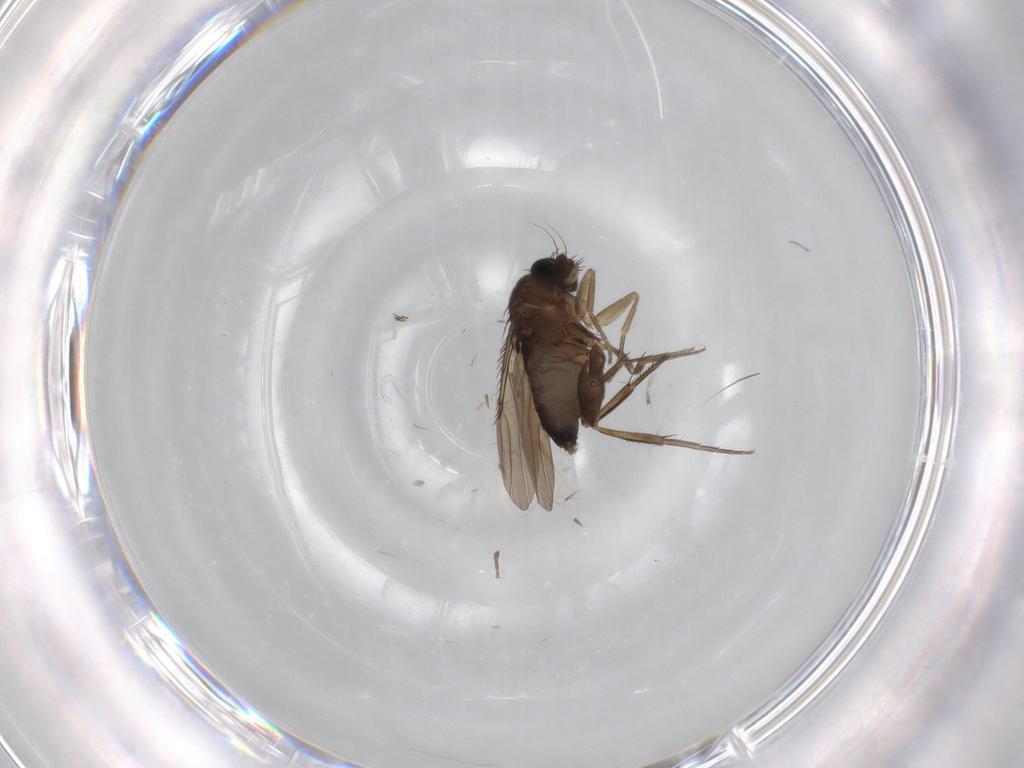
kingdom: Animalia
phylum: Arthropoda
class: Insecta
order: Diptera
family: Phoridae
